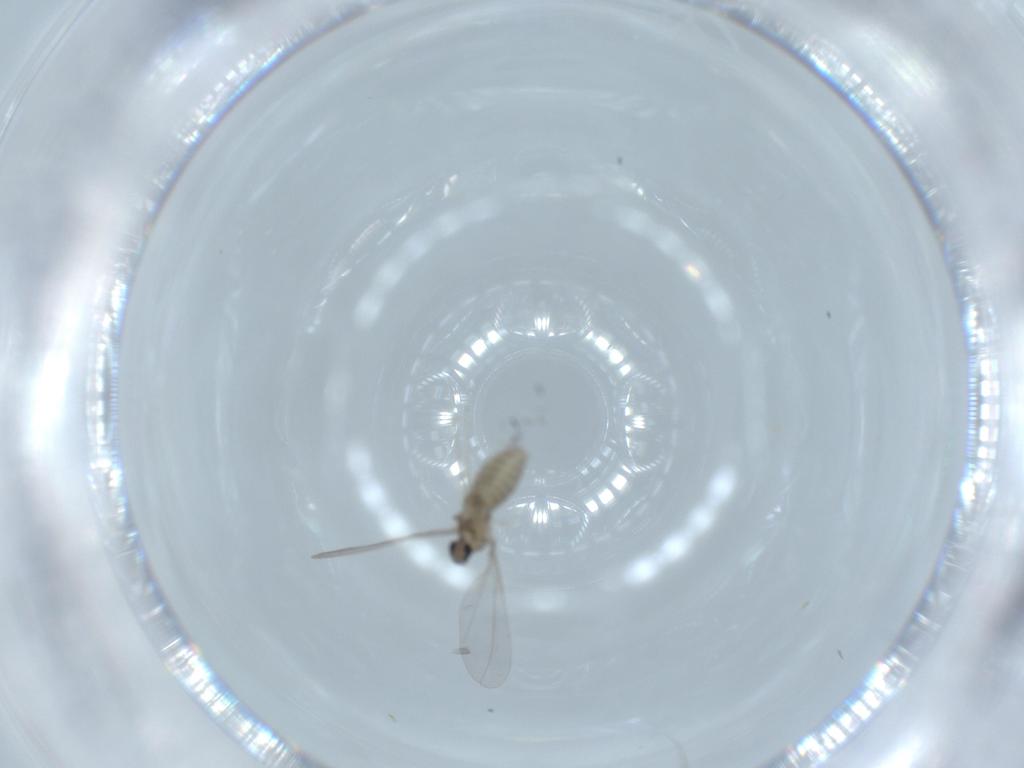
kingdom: Animalia
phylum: Arthropoda
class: Insecta
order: Diptera
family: Cecidomyiidae
